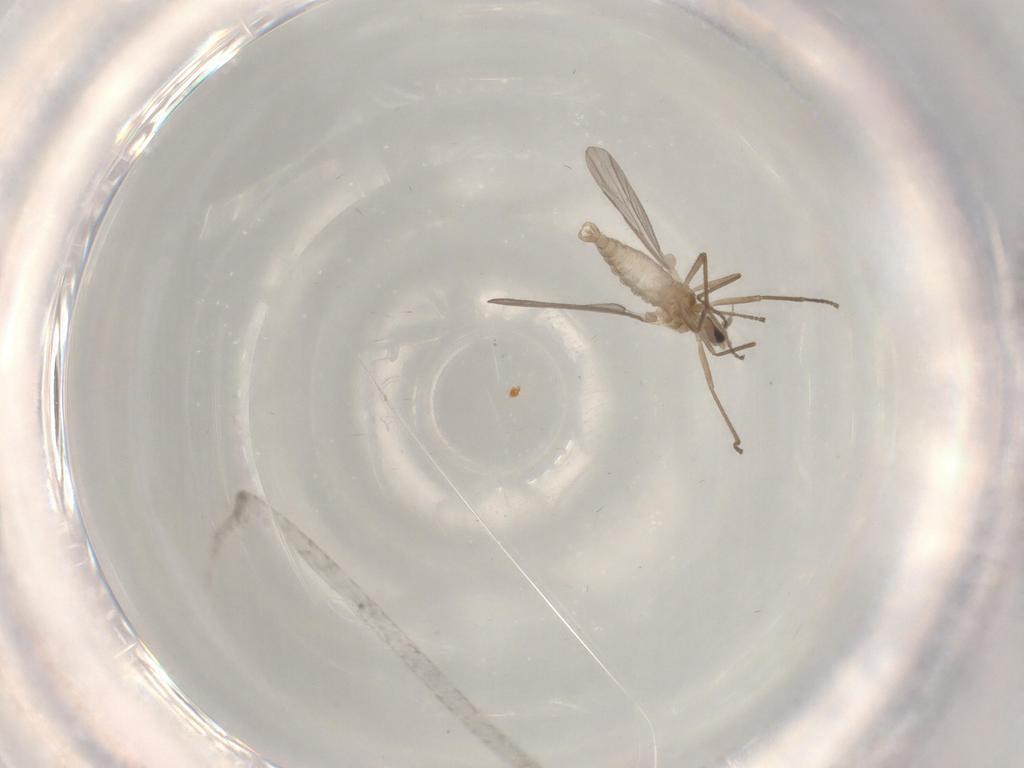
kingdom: Animalia
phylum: Arthropoda
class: Insecta
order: Diptera
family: Cecidomyiidae
